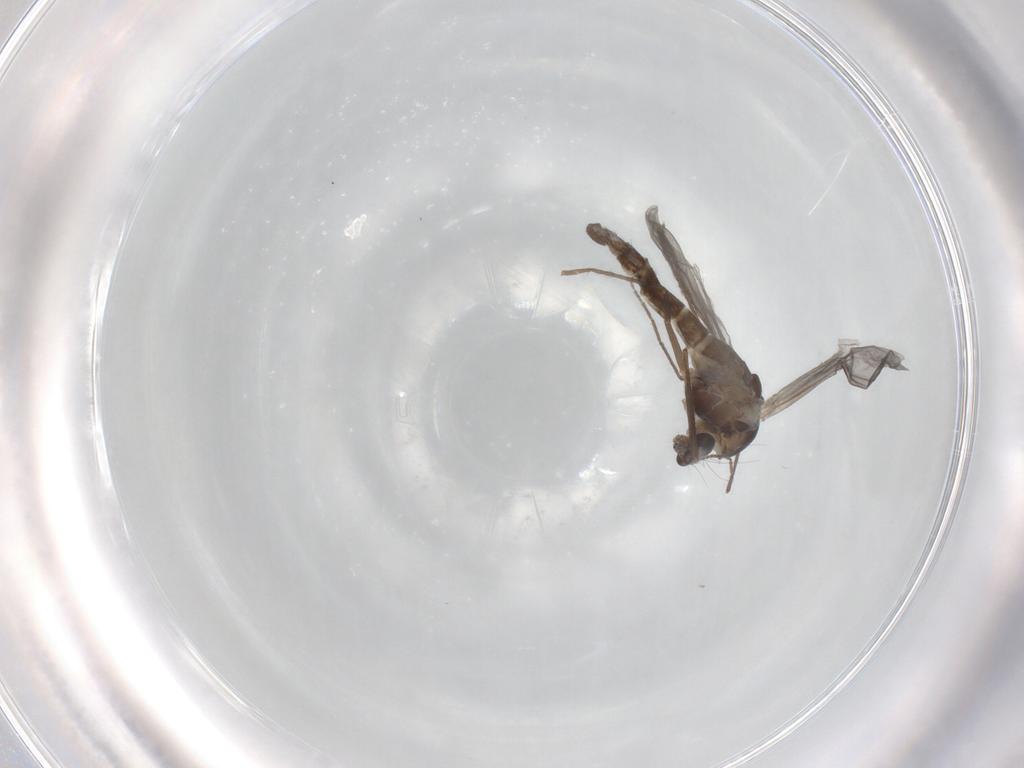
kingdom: Animalia
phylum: Arthropoda
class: Insecta
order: Diptera
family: Chironomidae
